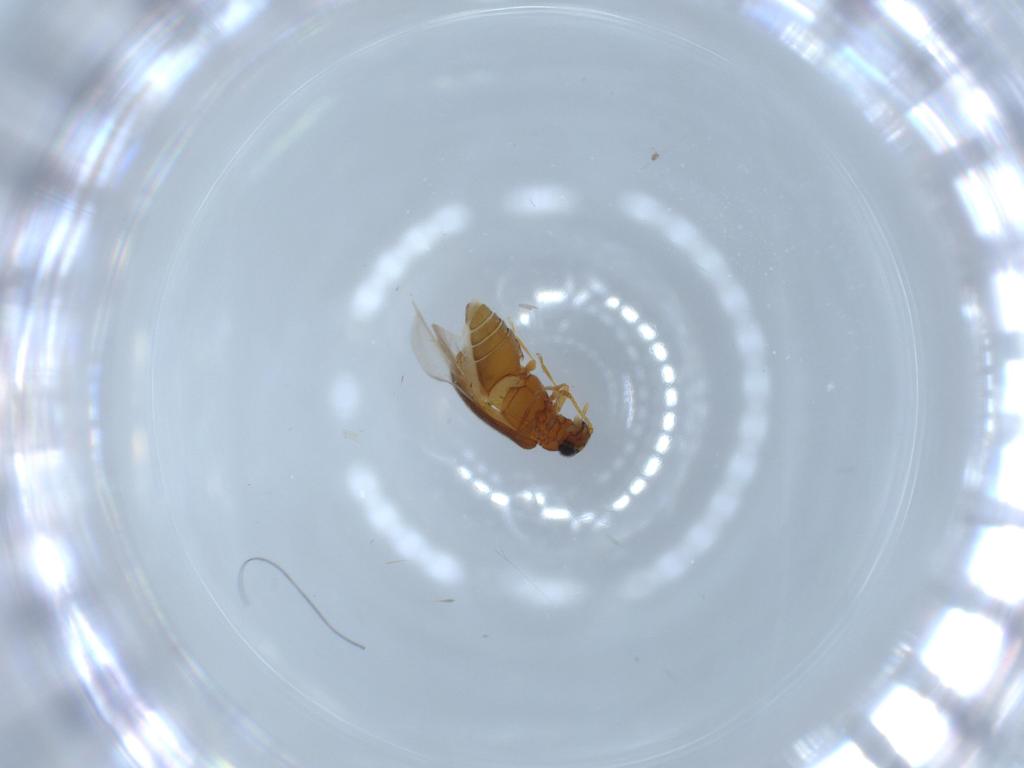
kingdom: Animalia
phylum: Arthropoda
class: Insecta
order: Coleoptera
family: Aderidae
